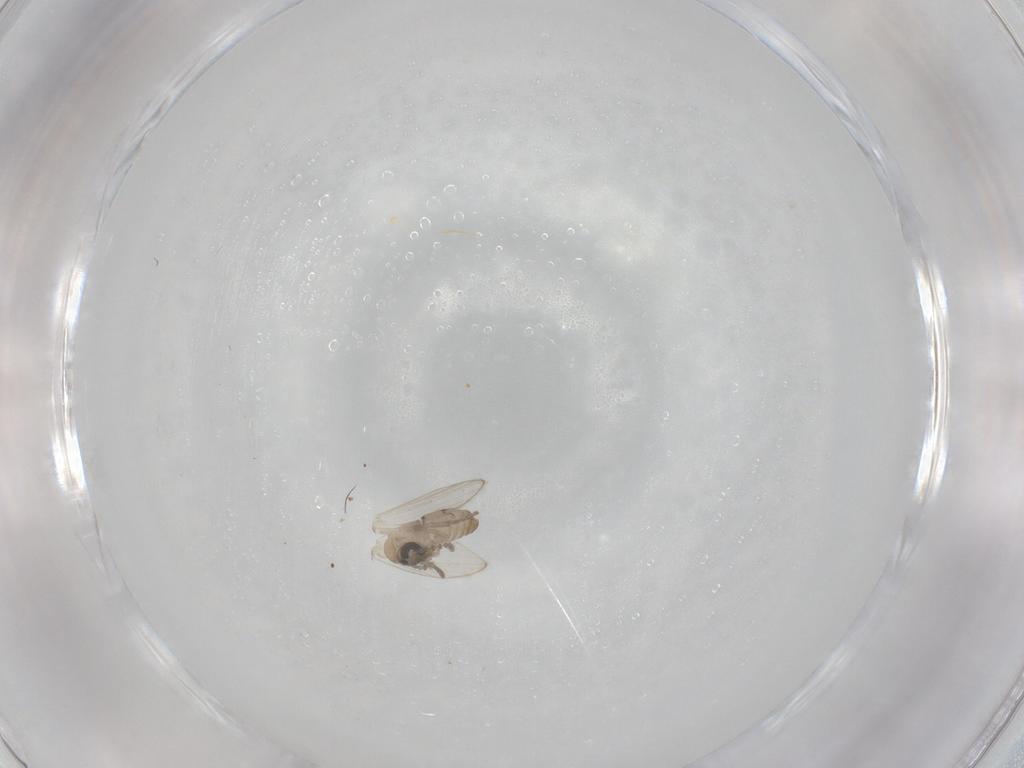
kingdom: Animalia
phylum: Arthropoda
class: Insecta
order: Diptera
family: Psychodidae
